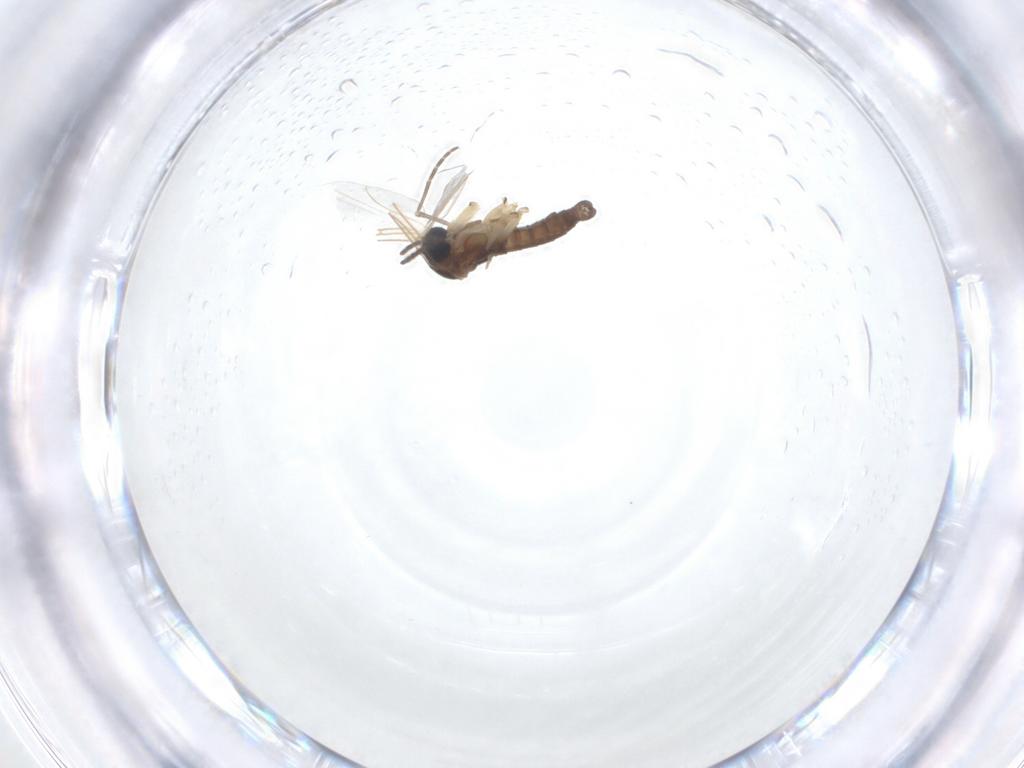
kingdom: Animalia
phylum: Arthropoda
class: Insecta
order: Diptera
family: Sciaridae
